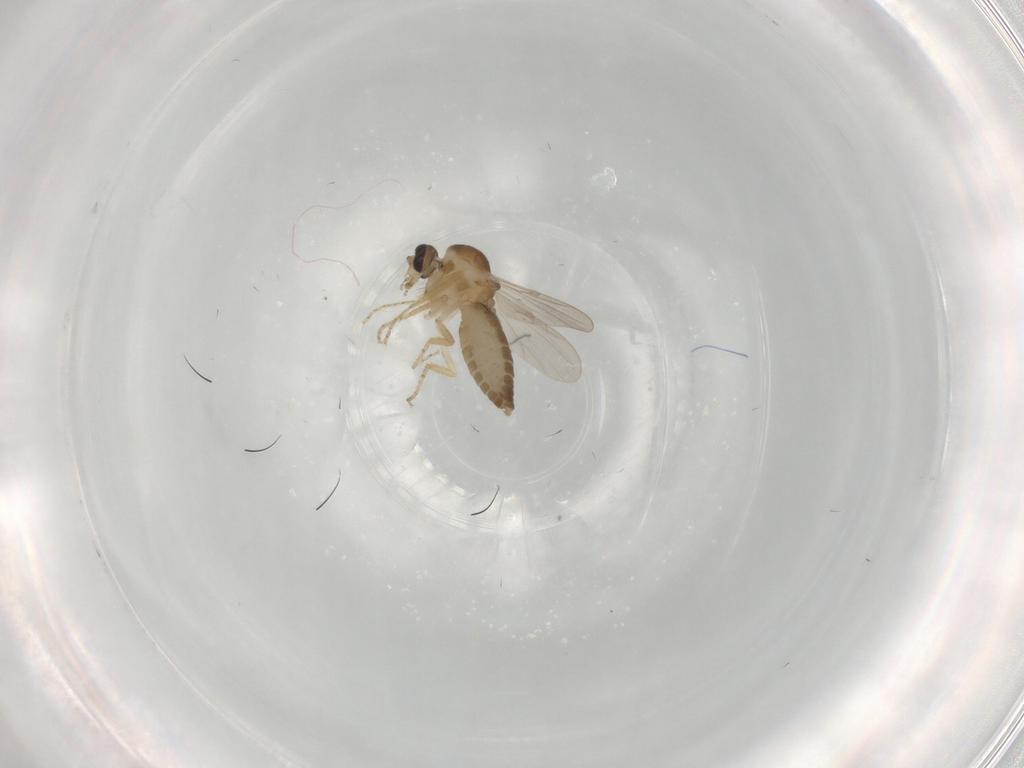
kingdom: Animalia
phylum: Arthropoda
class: Insecta
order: Diptera
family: Ceratopogonidae
